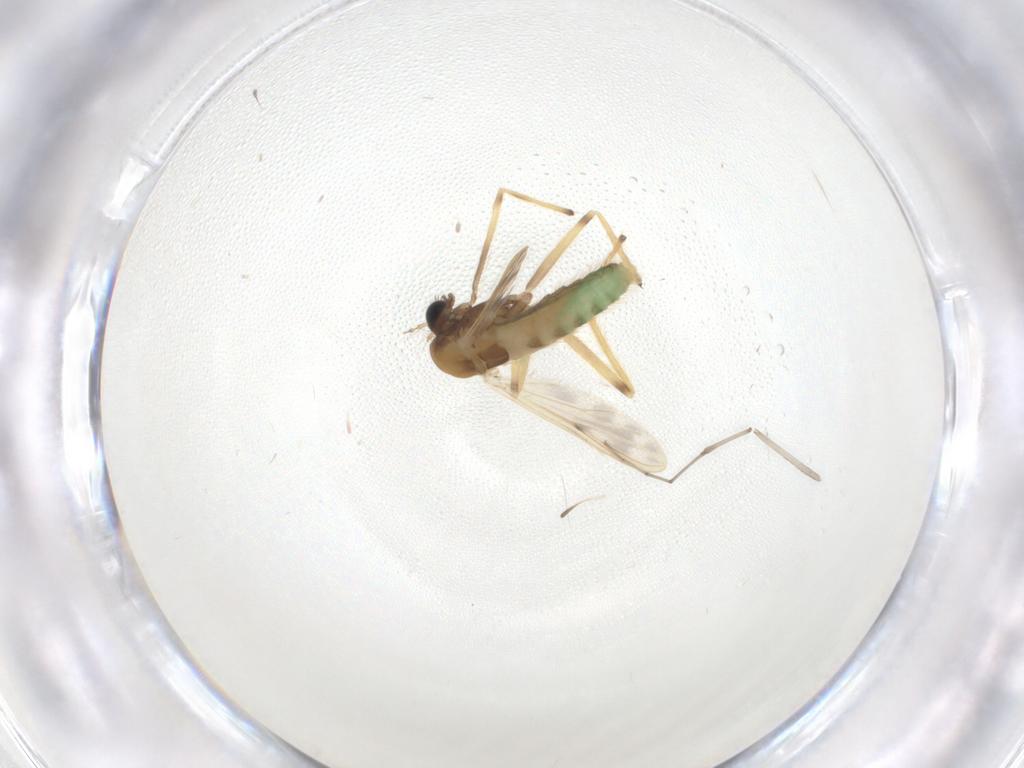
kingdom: Animalia
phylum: Arthropoda
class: Insecta
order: Diptera
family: Chironomidae
